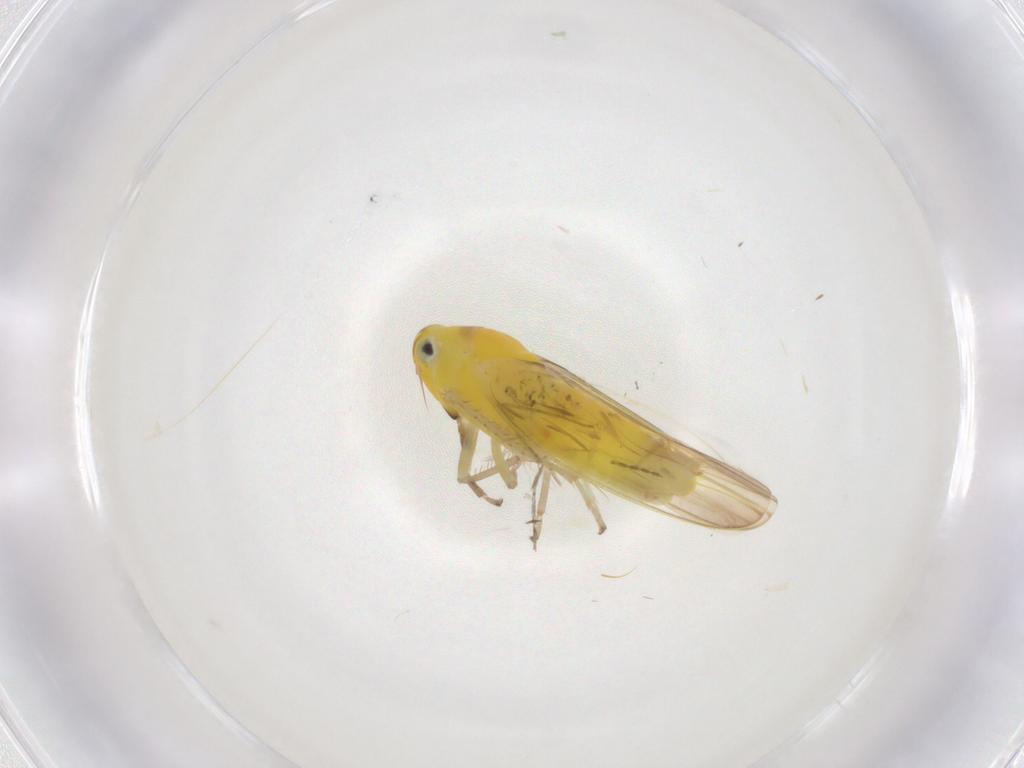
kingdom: Animalia
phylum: Arthropoda
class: Insecta
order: Hemiptera
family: Cicadellidae
